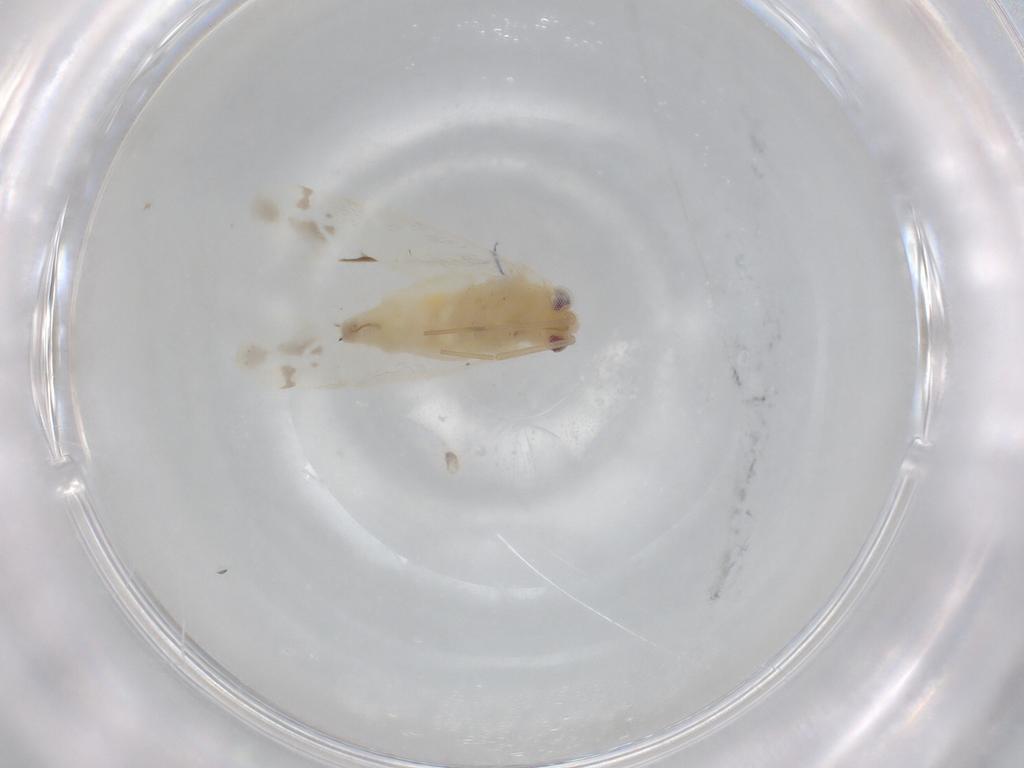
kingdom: Animalia
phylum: Arthropoda
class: Insecta
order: Hemiptera
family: Miridae
